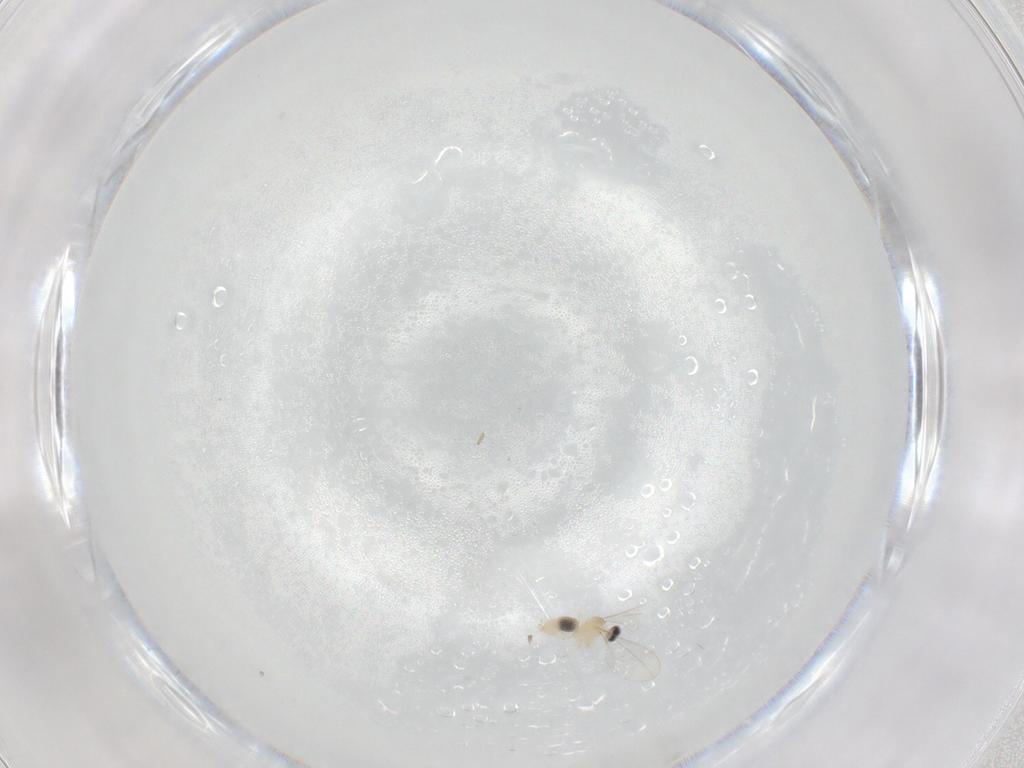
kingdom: Animalia
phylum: Arthropoda
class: Insecta
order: Diptera
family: Cecidomyiidae
